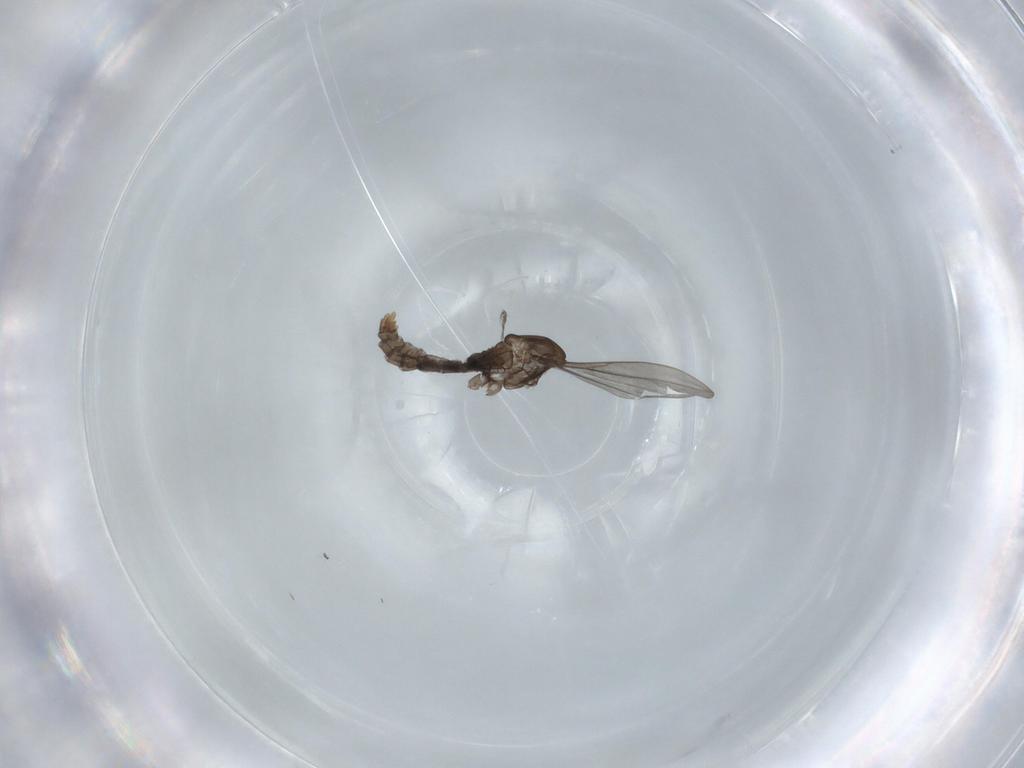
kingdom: Animalia
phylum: Arthropoda
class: Insecta
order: Diptera
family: Cecidomyiidae
